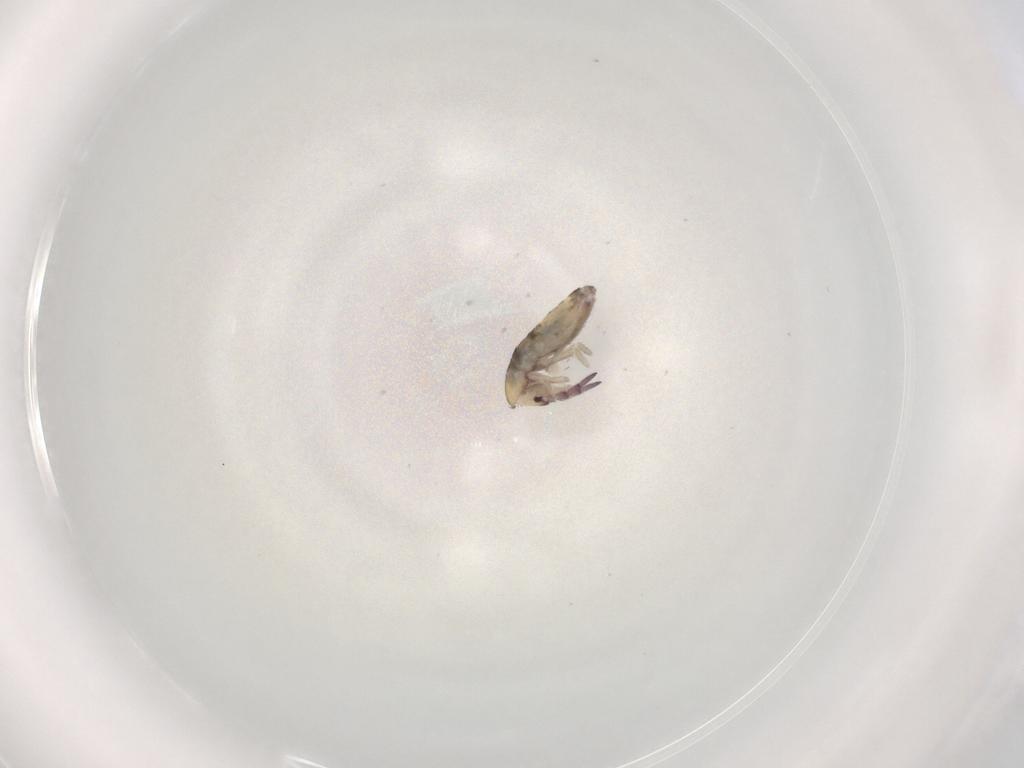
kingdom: Animalia
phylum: Arthropoda
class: Collembola
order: Entomobryomorpha
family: Entomobryidae
